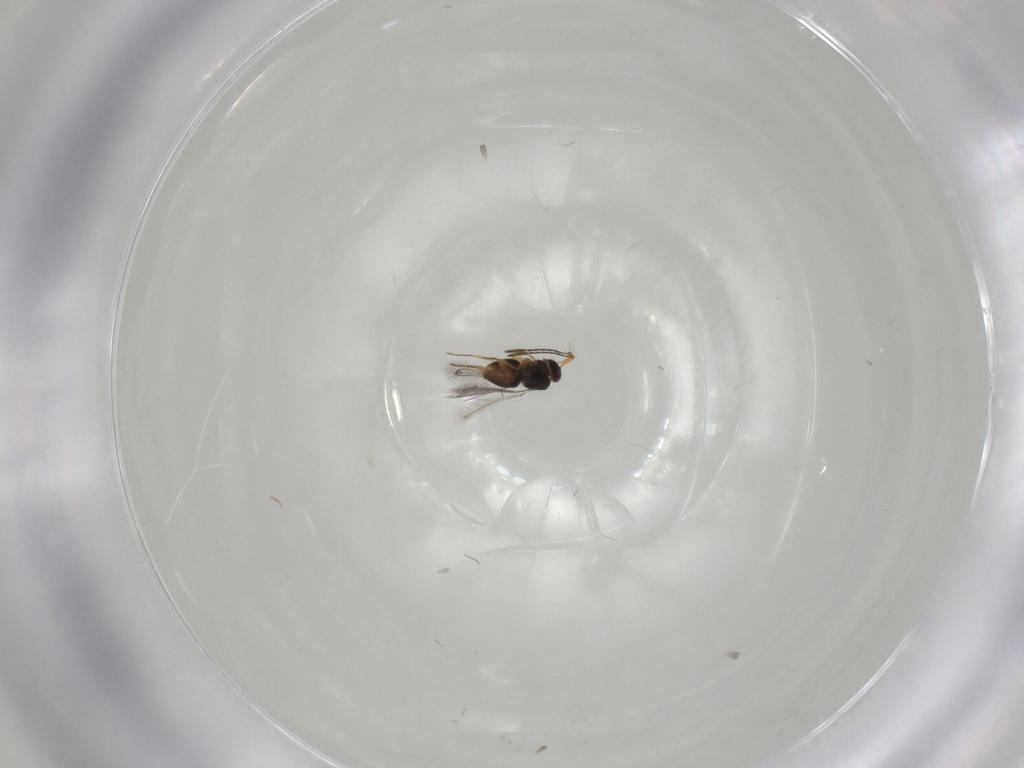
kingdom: Animalia
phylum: Arthropoda
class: Insecta
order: Hymenoptera
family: Mymaridae
